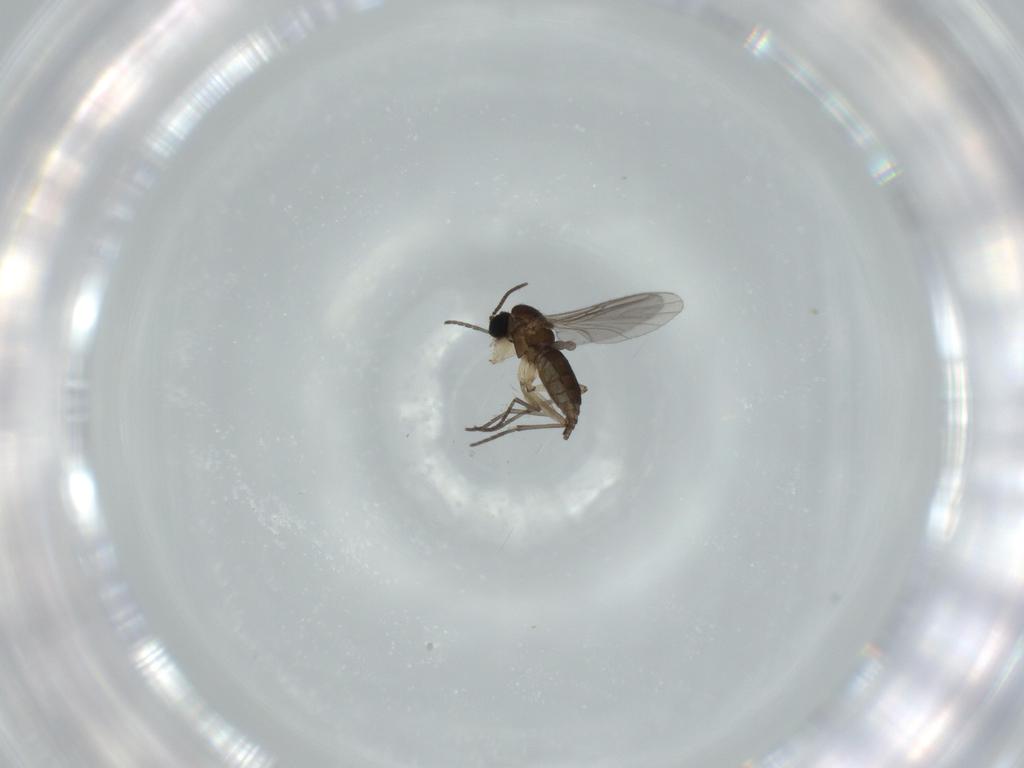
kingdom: Animalia
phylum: Arthropoda
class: Insecta
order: Diptera
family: Sciaridae
